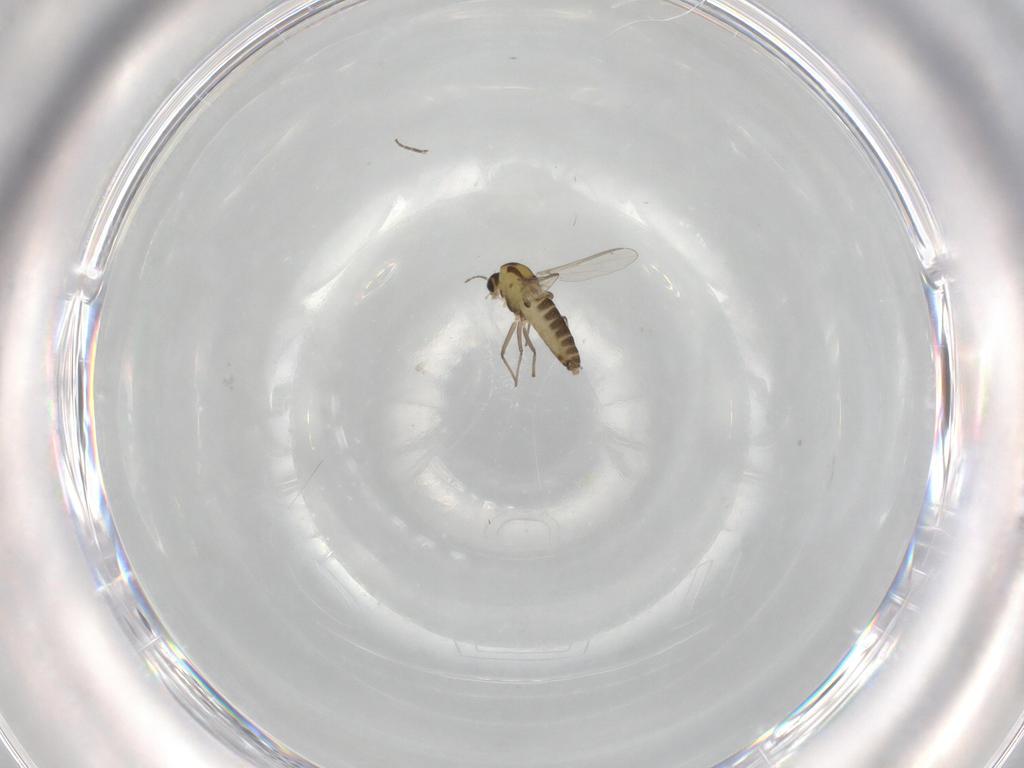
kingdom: Animalia
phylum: Arthropoda
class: Insecta
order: Diptera
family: Chironomidae
